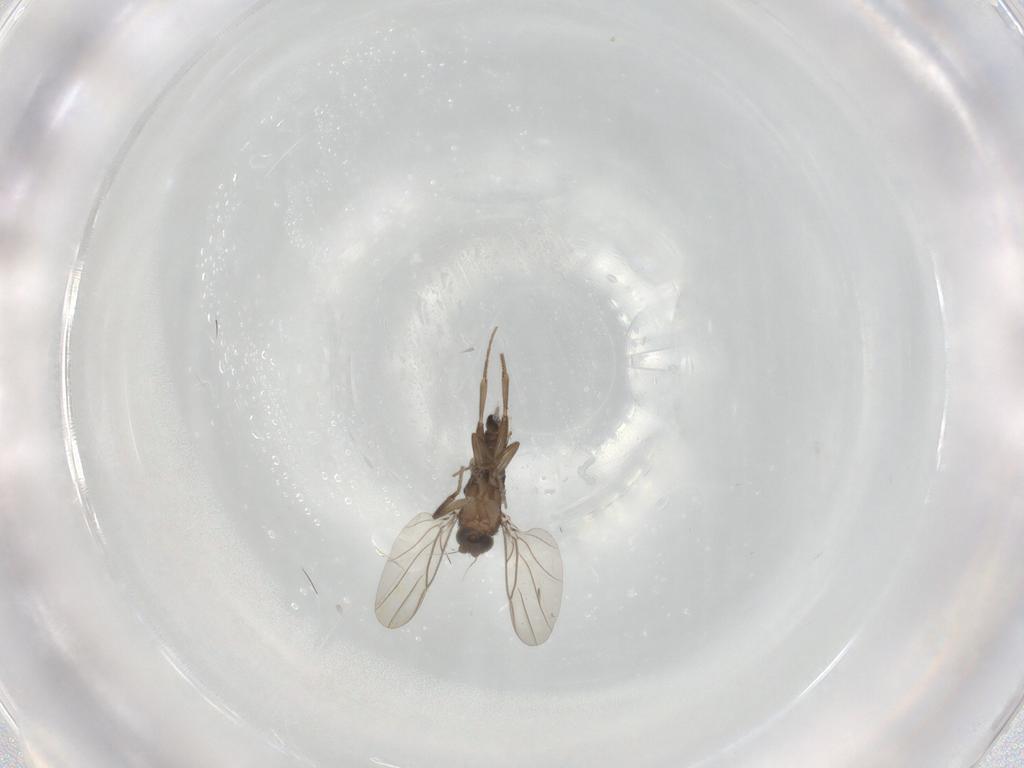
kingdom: Animalia
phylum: Arthropoda
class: Insecta
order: Diptera
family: Phoridae
